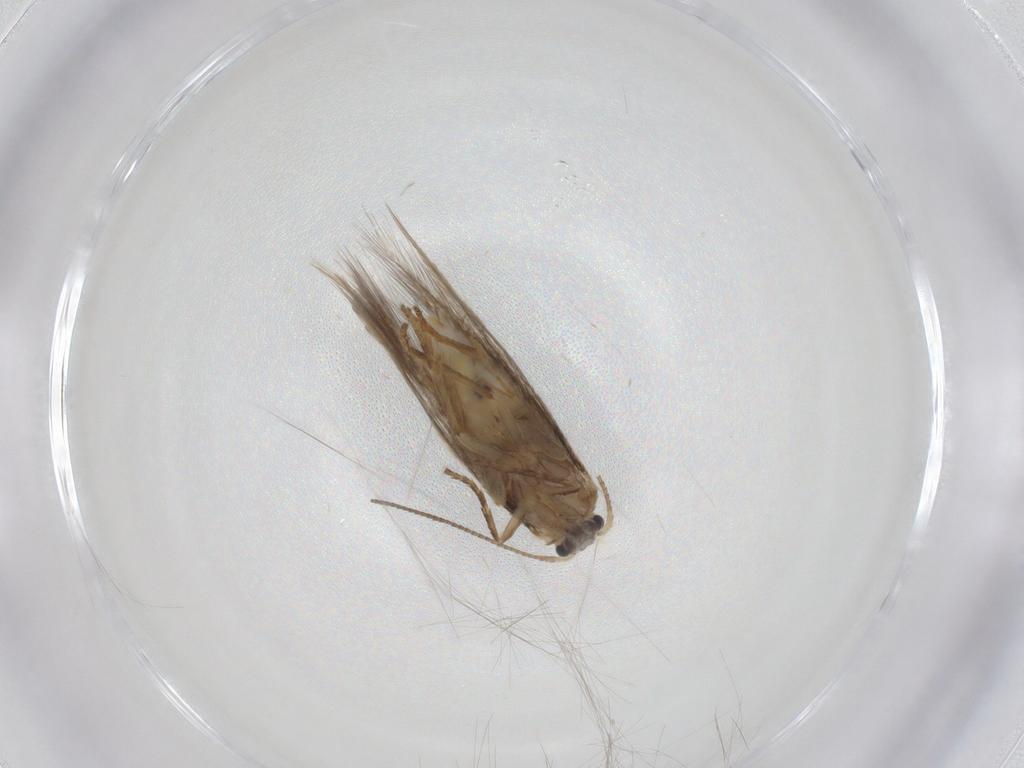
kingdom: Animalia
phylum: Arthropoda
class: Insecta
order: Lepidoptera
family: Nepticulidae
